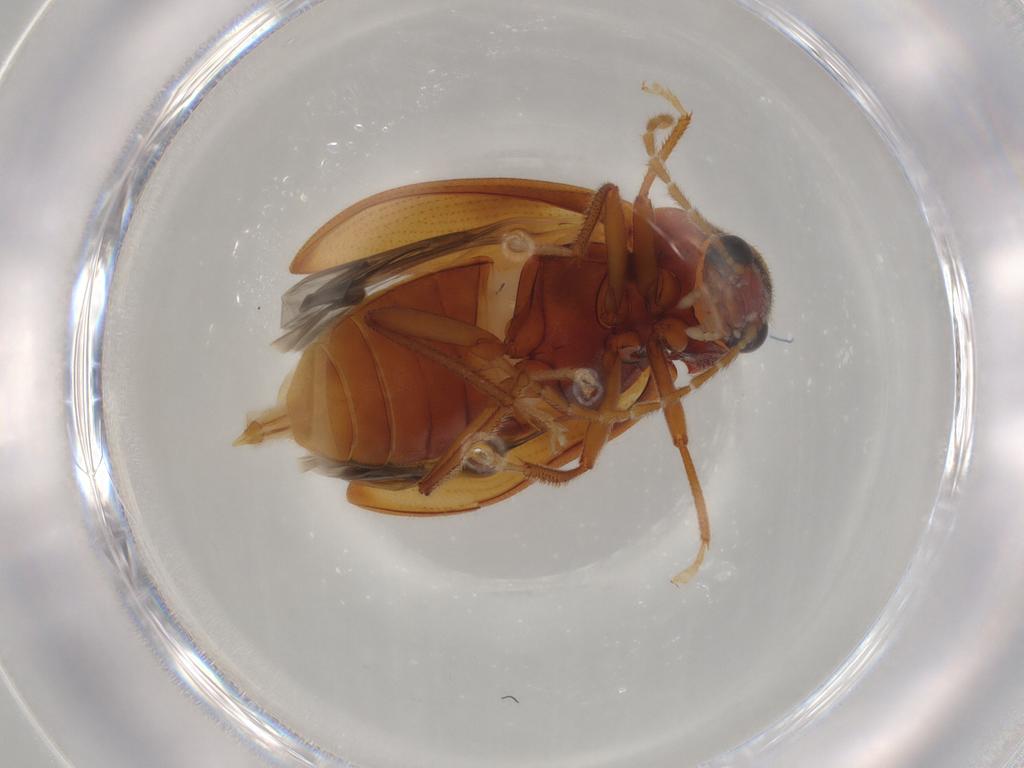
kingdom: Animalia
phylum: Arthropoda
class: Insecta
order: Coleoptera
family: Ptilodactylidae
